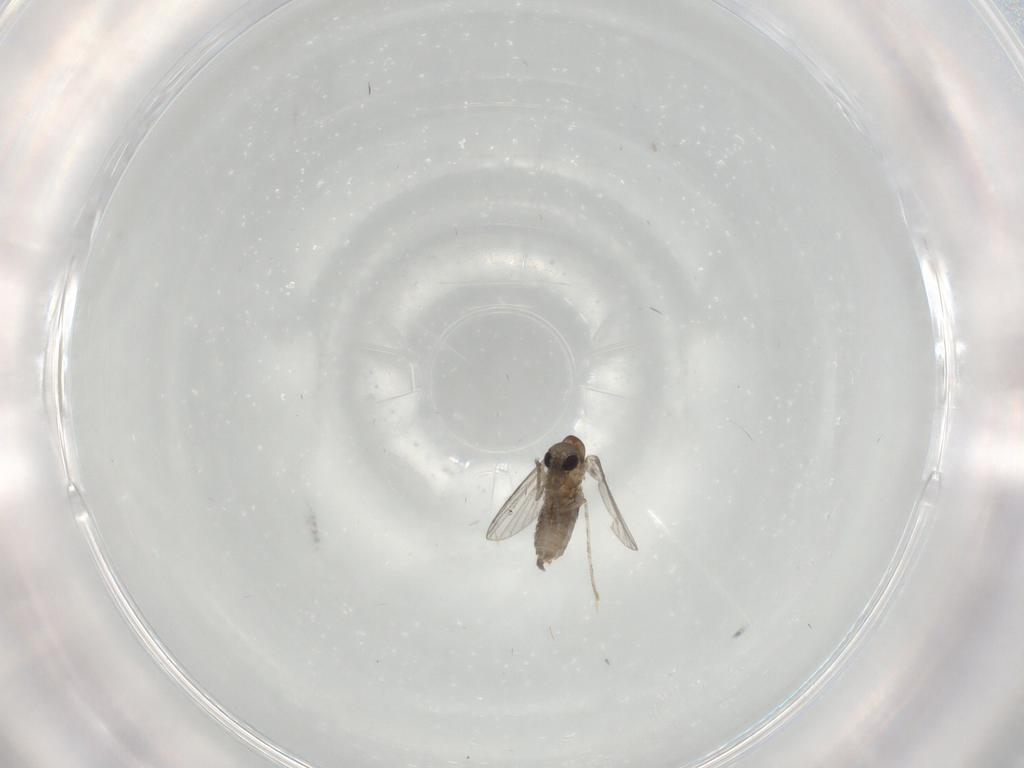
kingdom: Animalia
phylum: Arthropoda
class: Insecta
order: Diptera
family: Dolichopodidae
